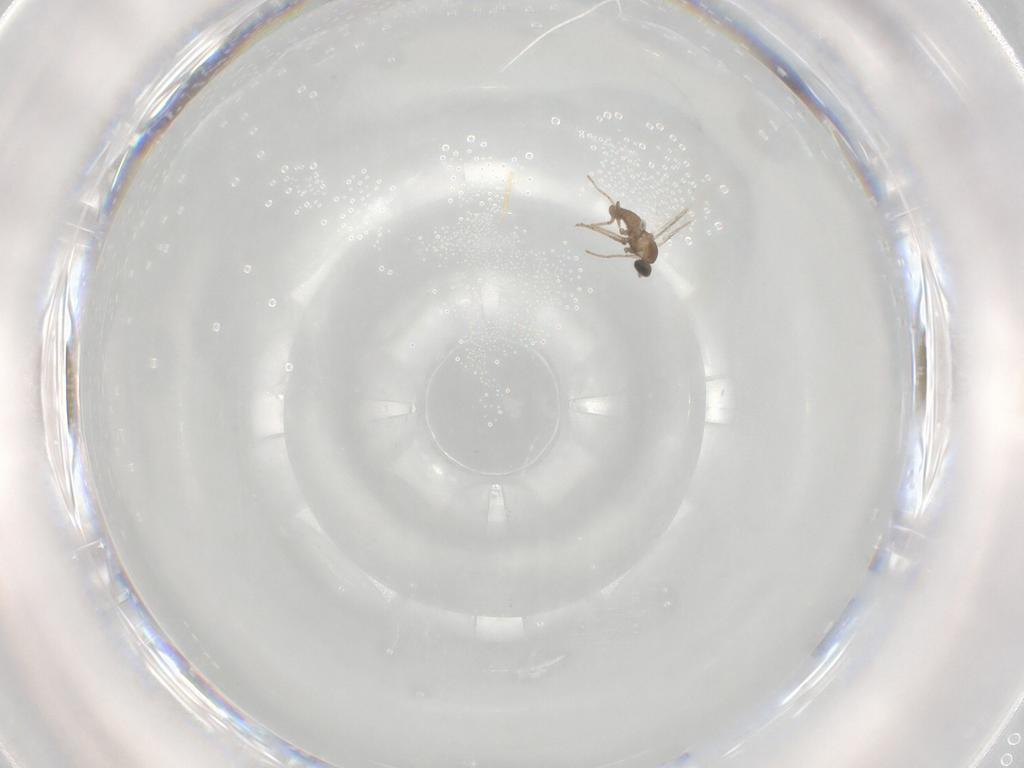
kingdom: Animalia
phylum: Arthropoda
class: Insecta
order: Diptera
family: Cecidomyiidae
